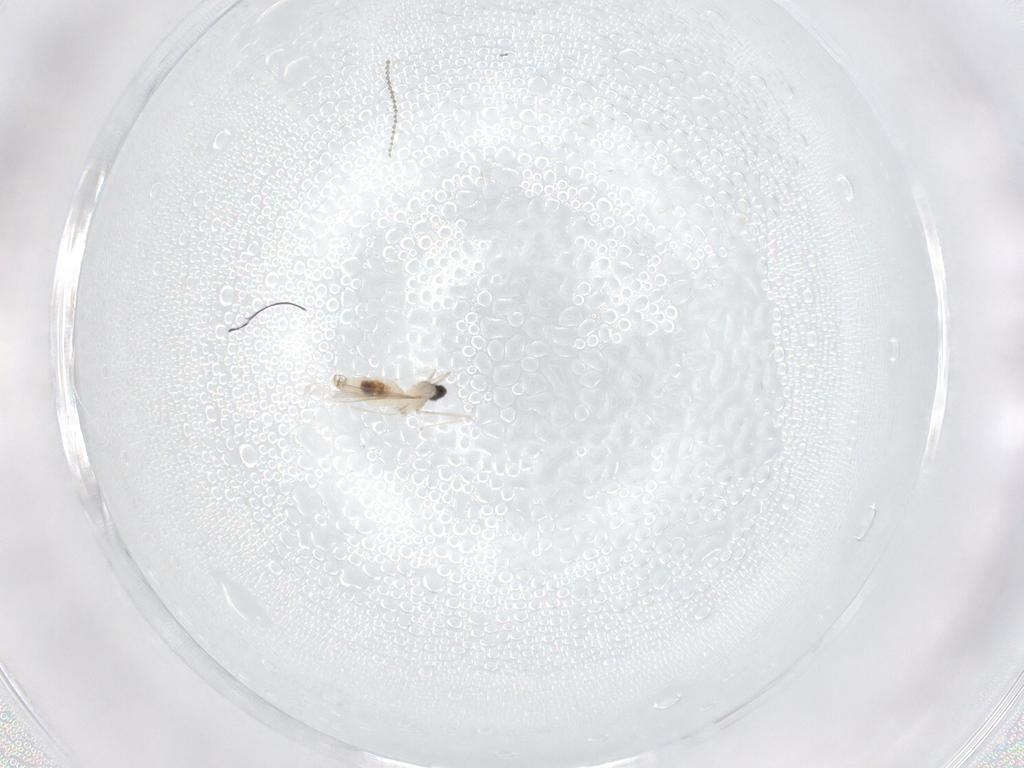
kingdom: Animalia
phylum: Arthropoda
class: Insecta
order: Diptera
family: Cecidomyiidae
